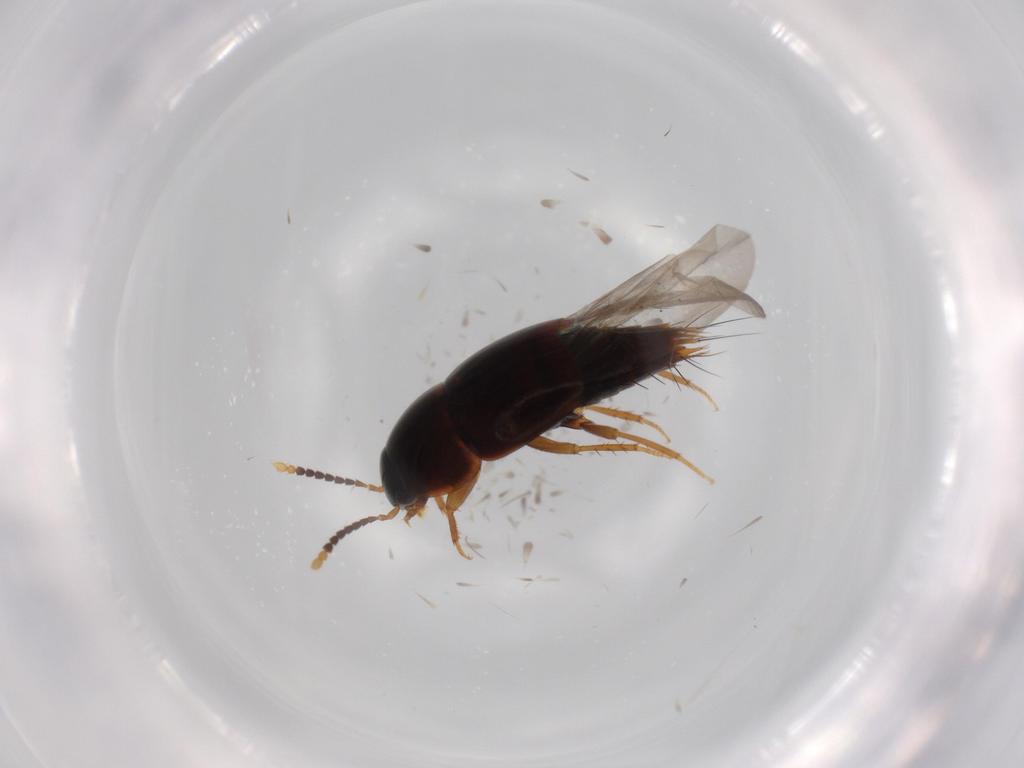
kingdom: Animalia
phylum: Arthropoda
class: Insecta
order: Coleoptera
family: Staphylinidae
